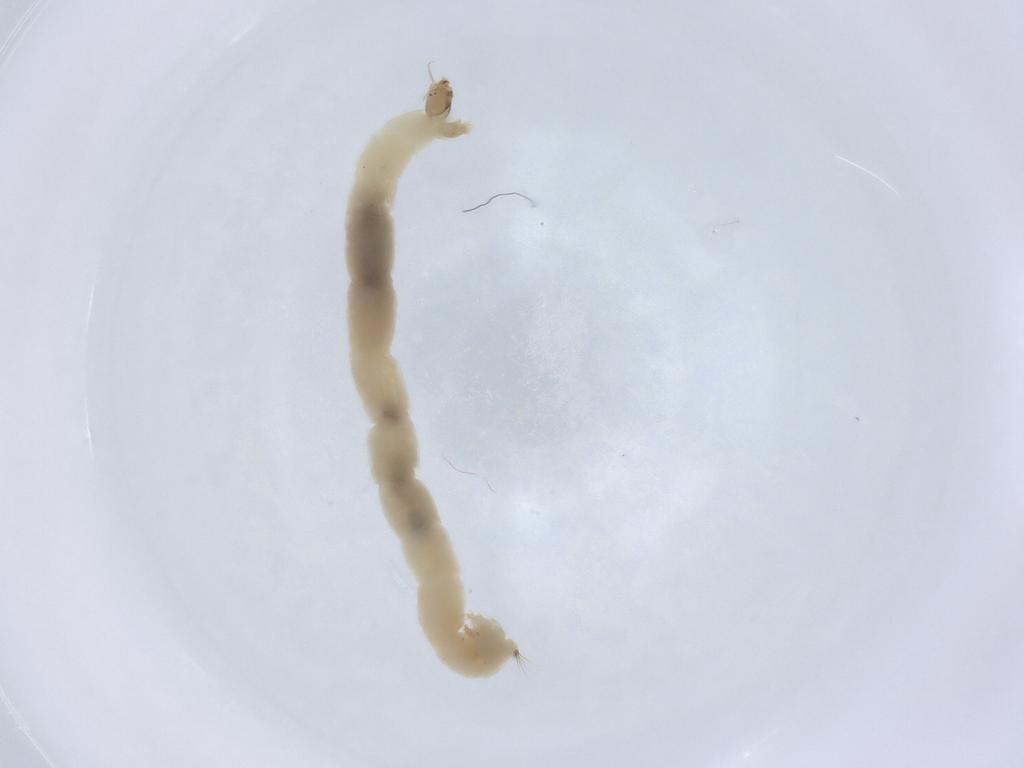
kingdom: Animalia
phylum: Arthropoda
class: Insecta
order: Diptera
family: Chironomidae
